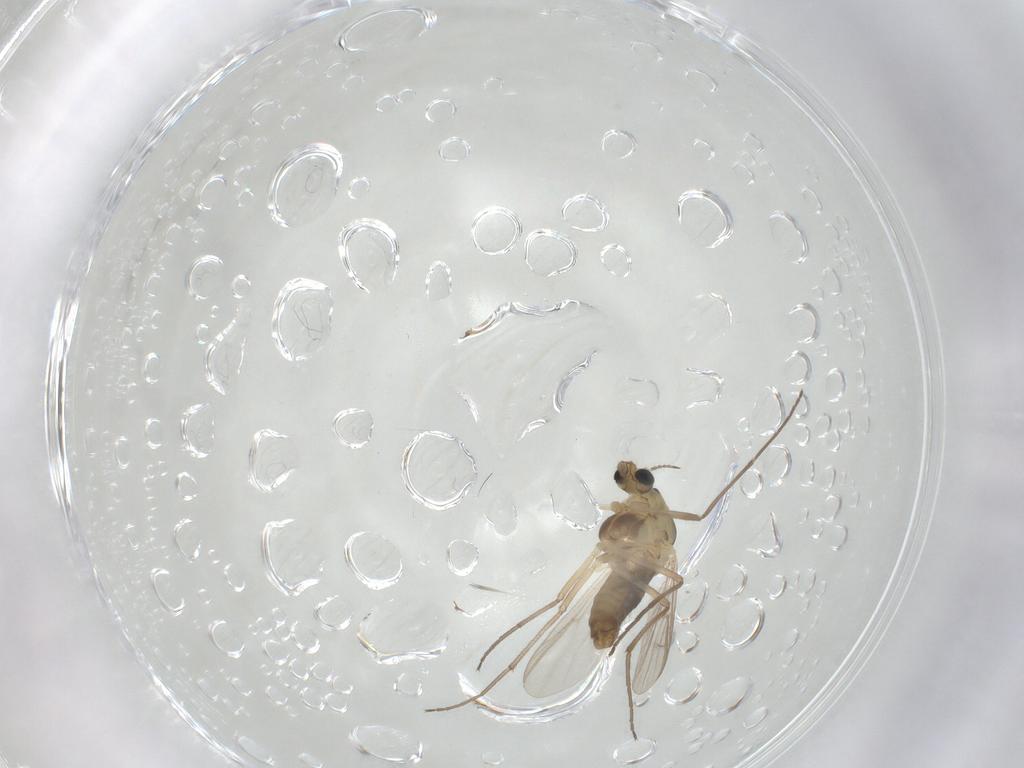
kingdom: Animalia
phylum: Arthropoda
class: Insecta
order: Diptera
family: Chironomidae
